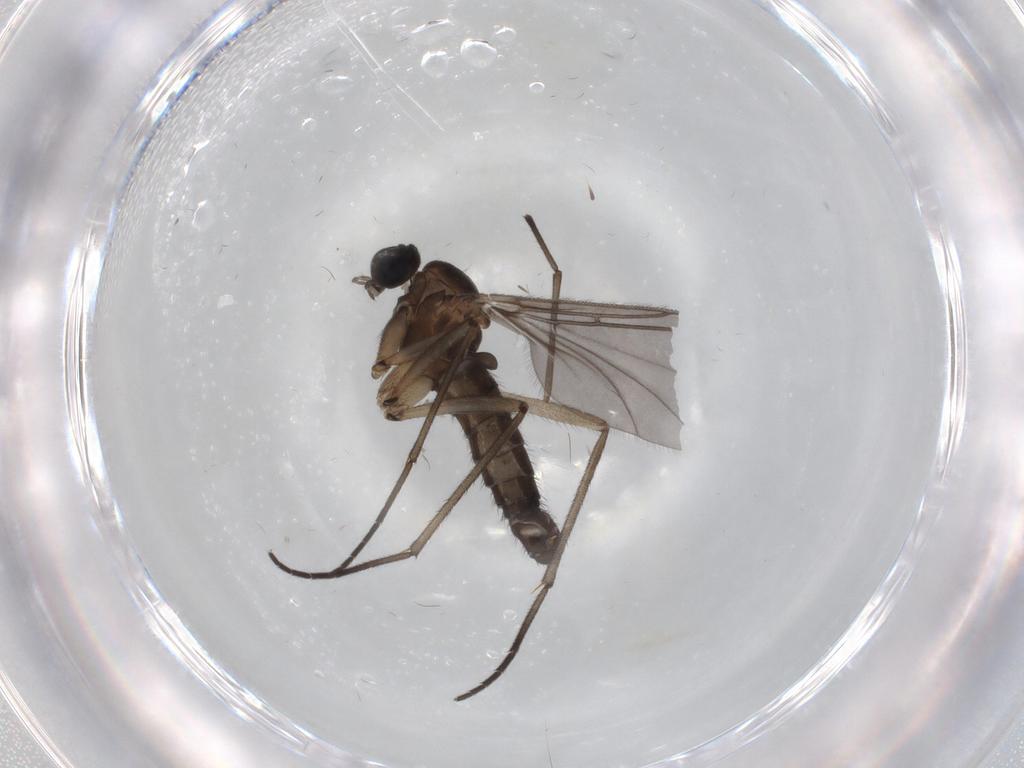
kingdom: Animalia
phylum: Arthropoda
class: Insecta
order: Diptera
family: Sciaridae
